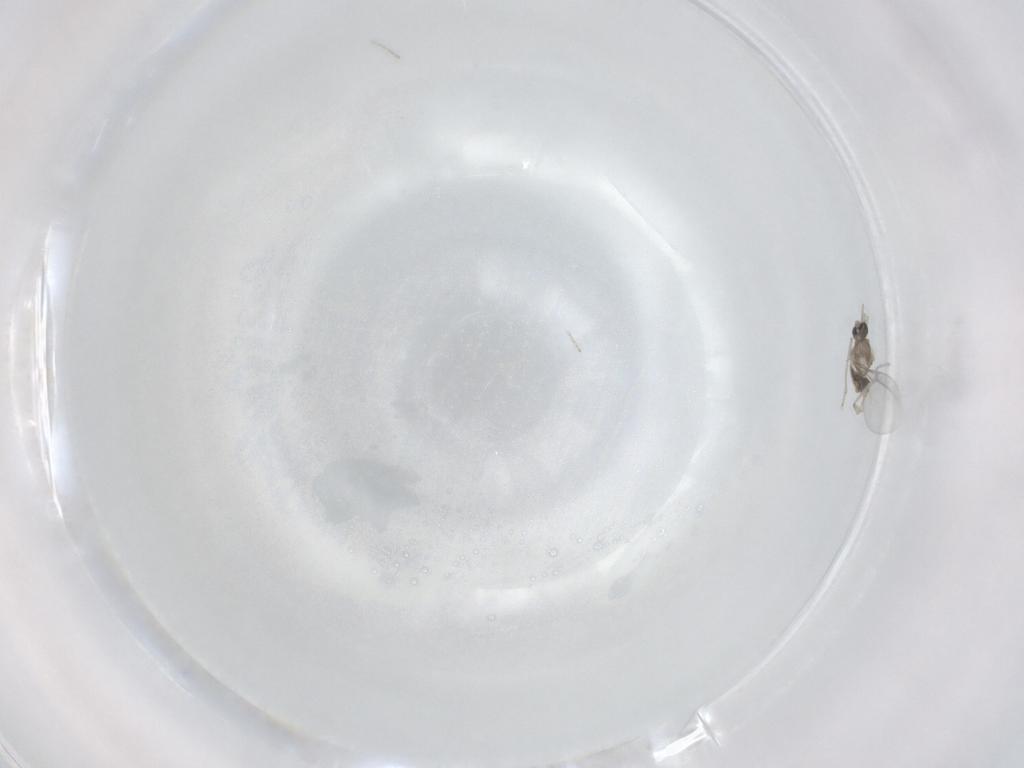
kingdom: Animalia
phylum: Arthropoda
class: Insecta
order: Diptera
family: Cecidomyiidae
